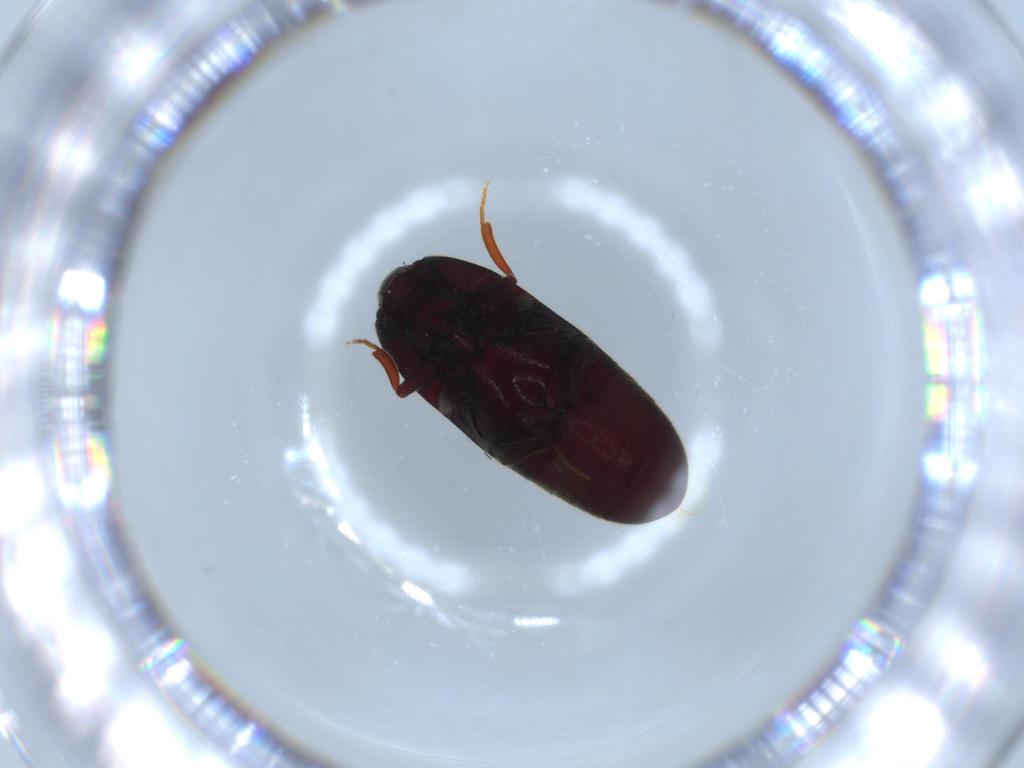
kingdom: Animalia
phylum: Arthropoda
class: Insecta
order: Coleoptera
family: Throscidae
